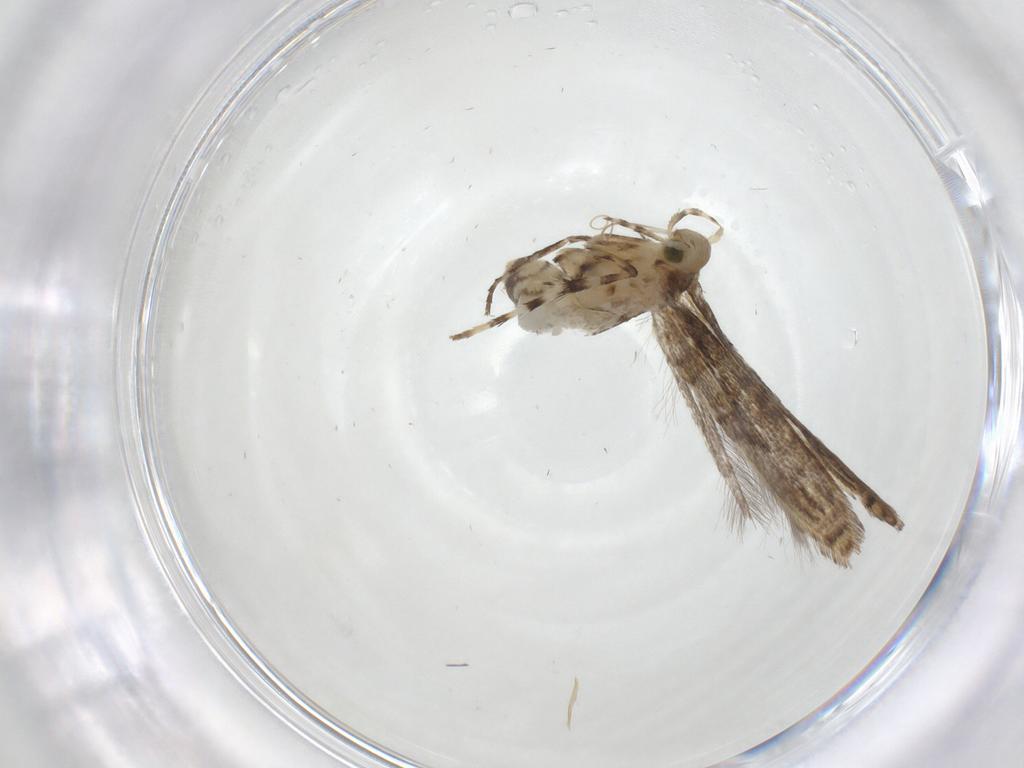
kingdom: Animalia
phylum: Arthropoda
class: Insecta
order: Lepidoptera
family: Gracillariidae
